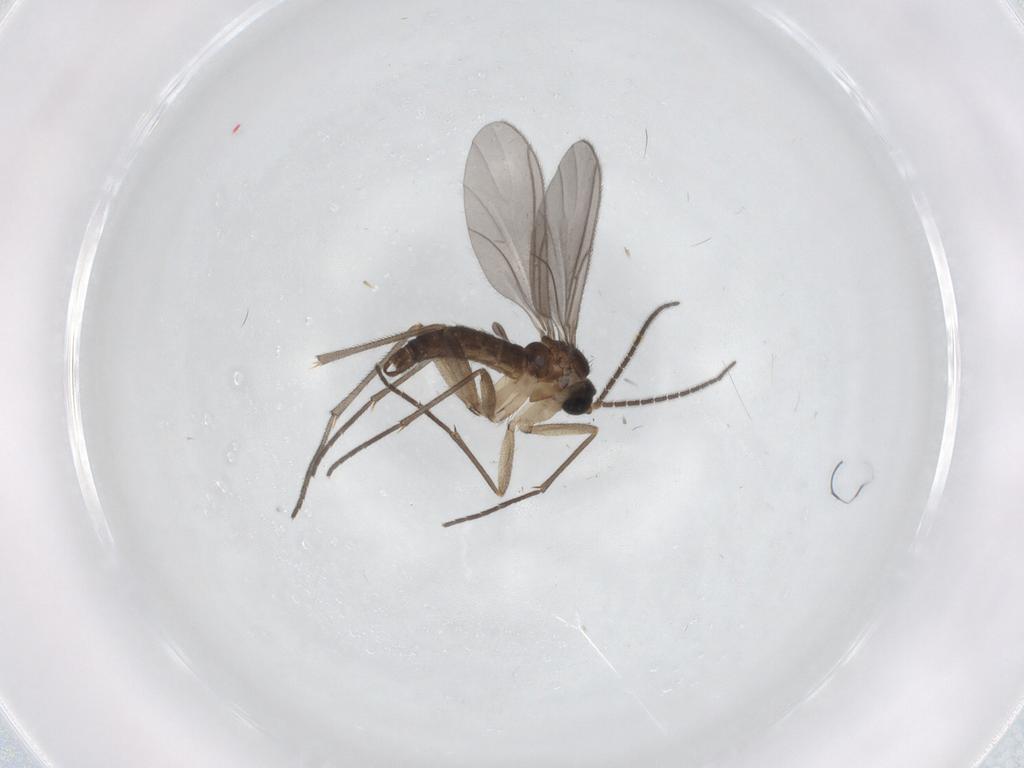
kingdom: Animalia
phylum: Arthropoda
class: Insecta
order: Diptera
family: Sciaridae
